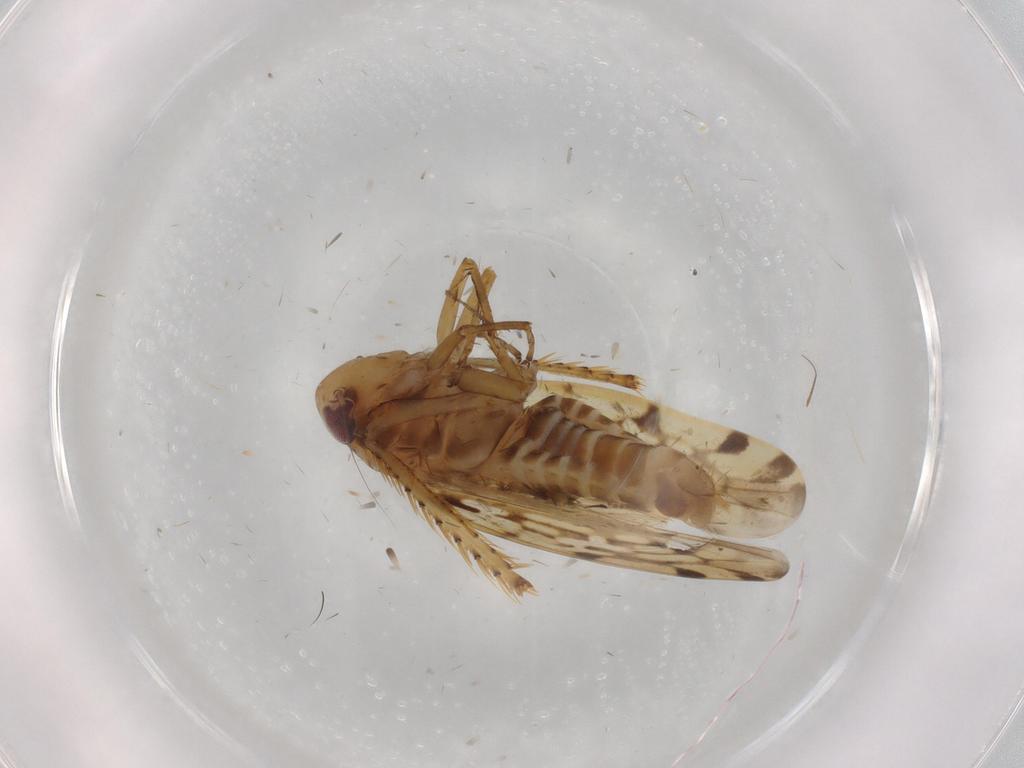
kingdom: Animalia
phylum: Arthropoda
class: Insecta
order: Hemiptera
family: Cicadellidae
